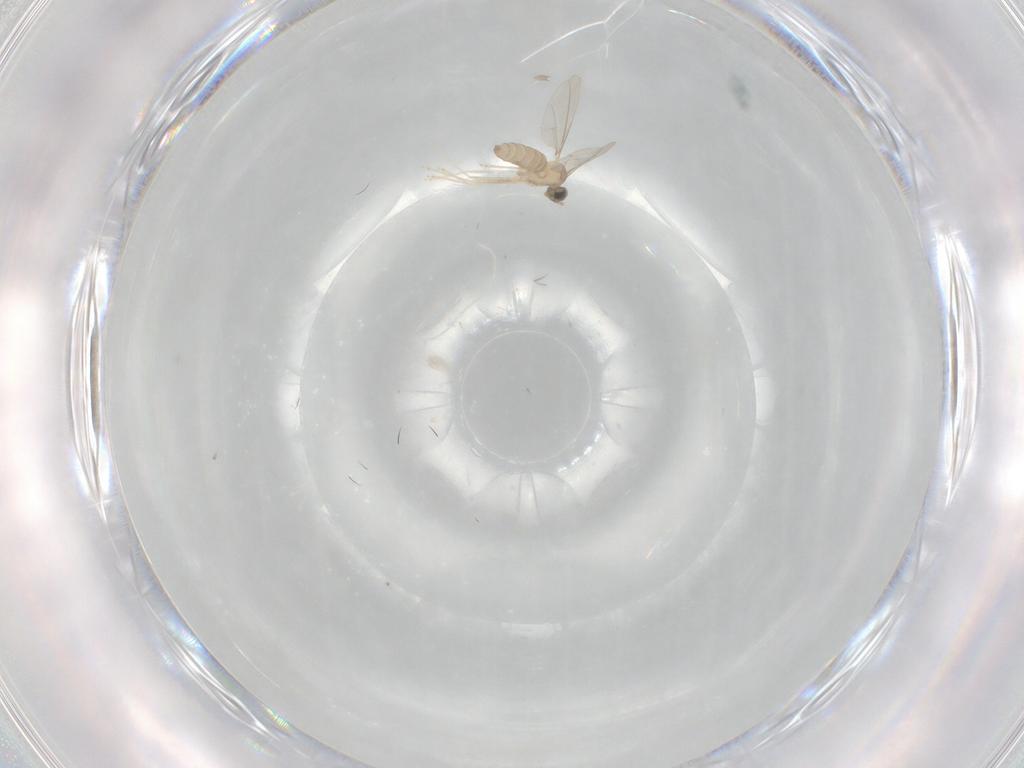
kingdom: Animalia
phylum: Arthropoda
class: Insecta
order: Diptera
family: Cecidomyiidae
